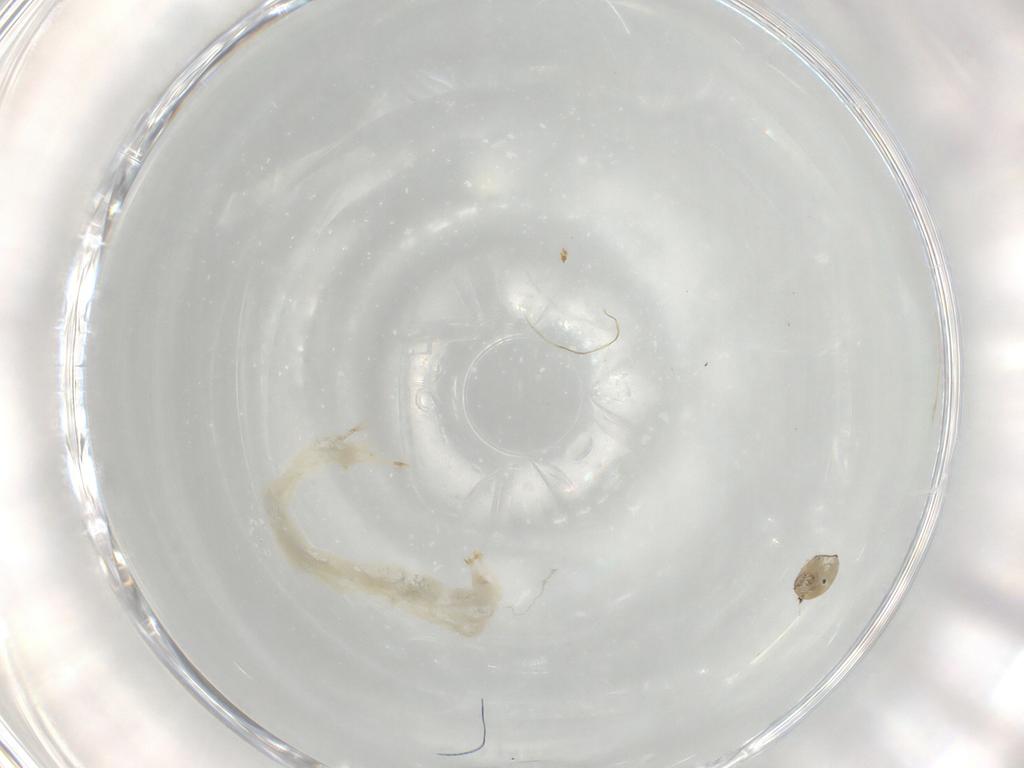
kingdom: Animalia
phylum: Arthropoda
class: Insecta
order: Diptera
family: Chironomidae
